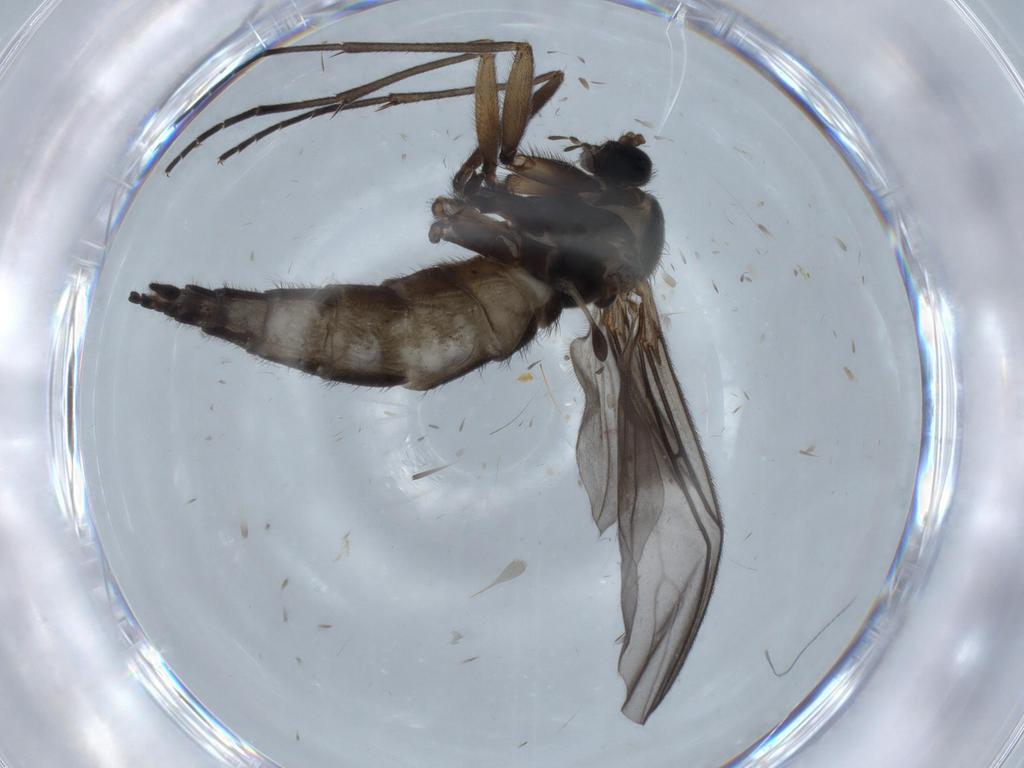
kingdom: Animalia
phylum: Arthropoda
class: Insecta
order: Diptera
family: Sciaridae
